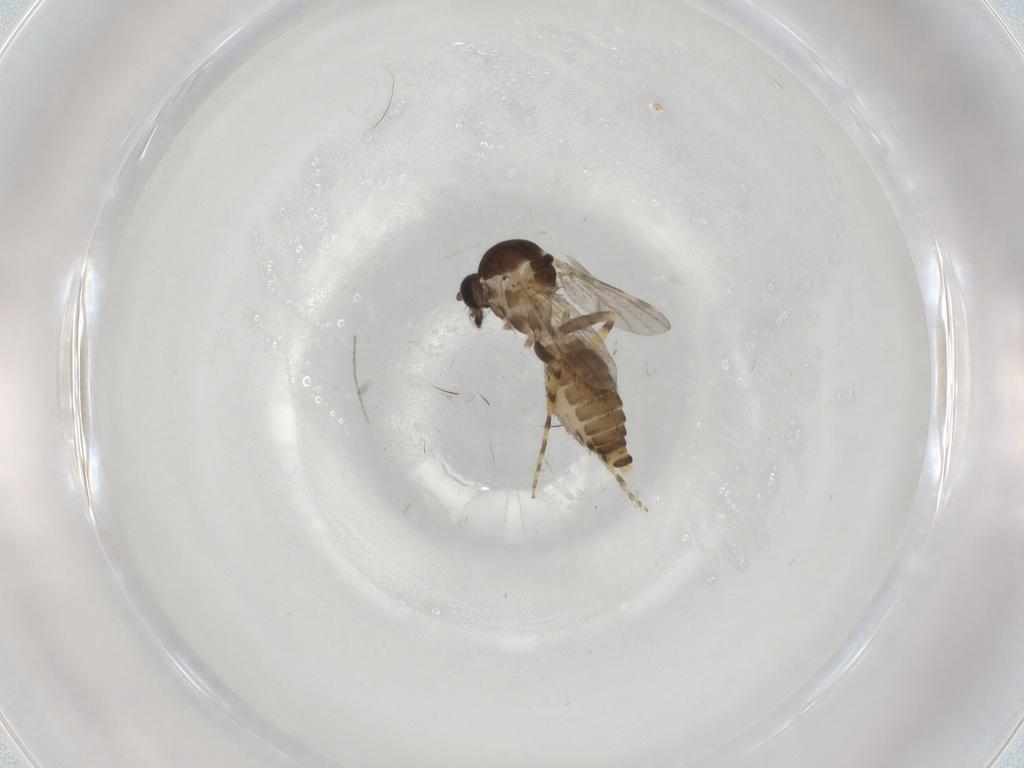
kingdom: Animalia
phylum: Arthropoda
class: Insecta
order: Diptera
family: Ceratopogonidae
